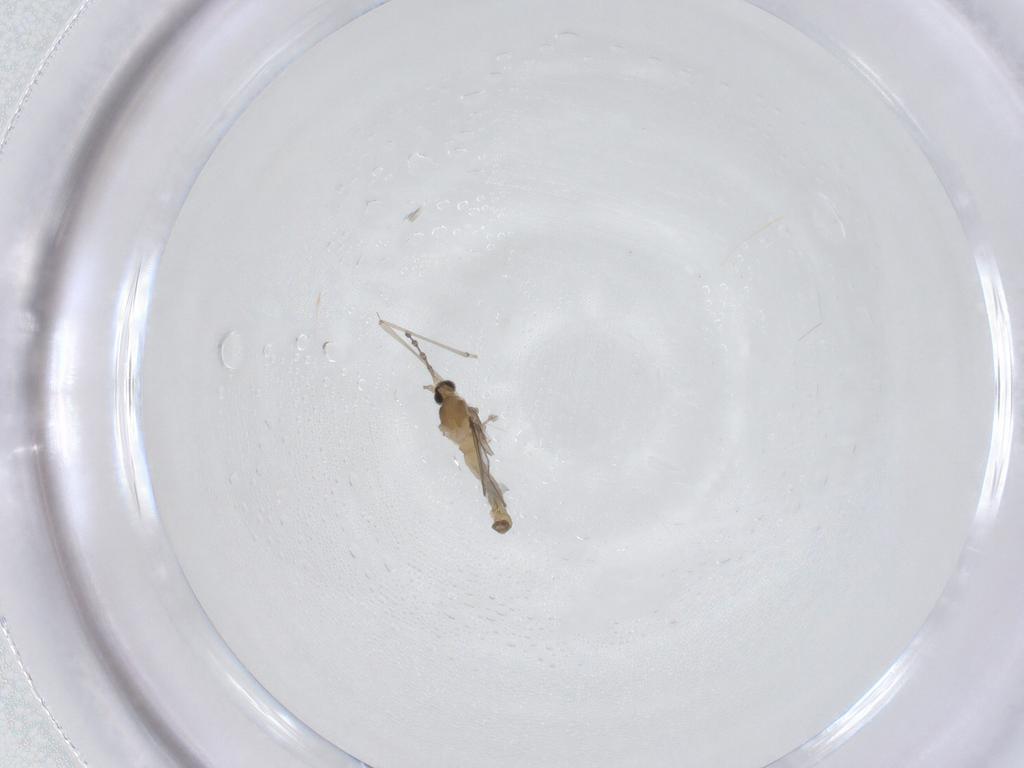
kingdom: Animalia
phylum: Arthropoda
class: Insecta
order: Diptera
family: Cecidomyiidae
